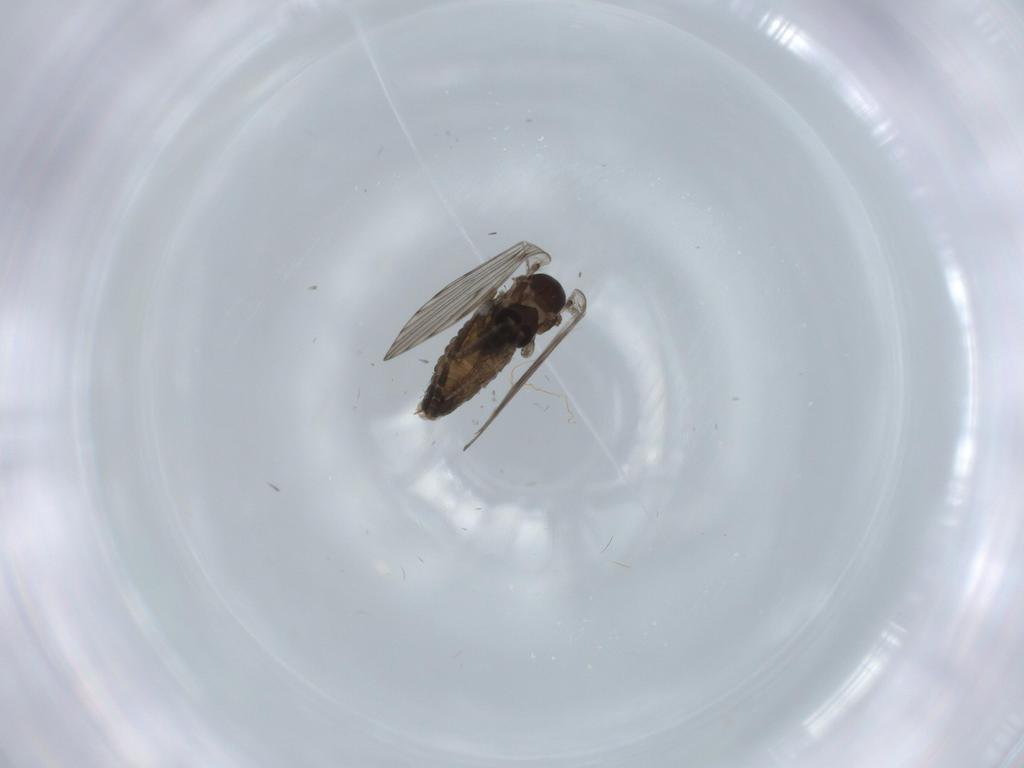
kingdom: Animalia
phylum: Arthropoda
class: Insecta
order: Diptera
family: Psychodidae
